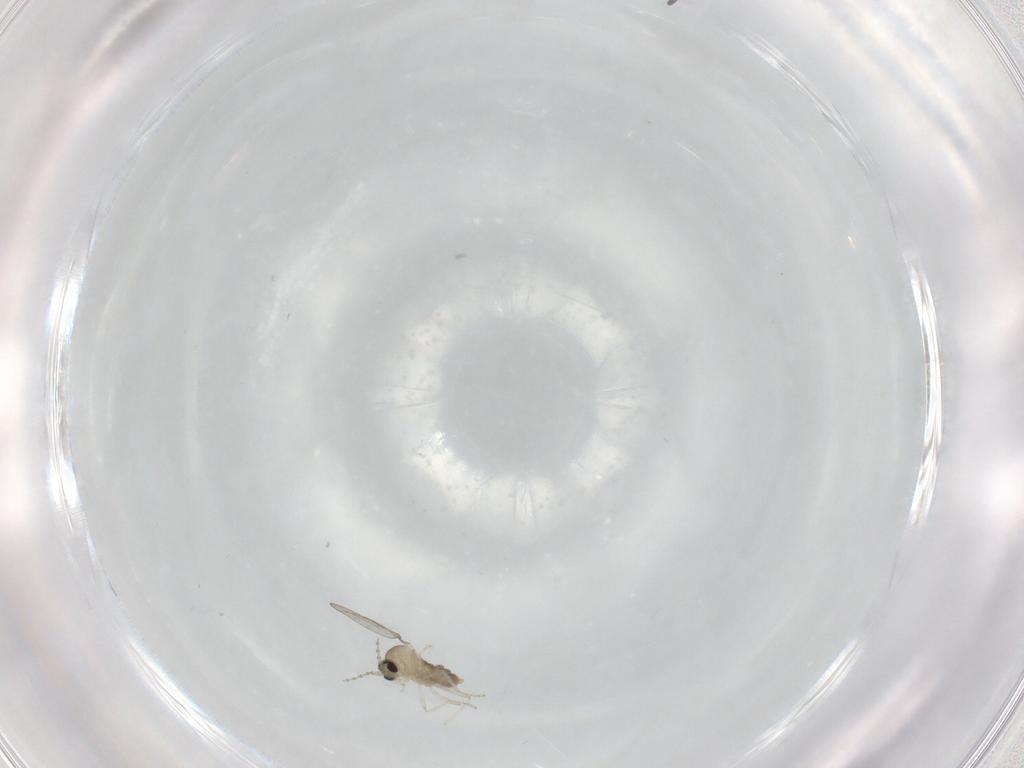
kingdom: Animalia
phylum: Arthropoda
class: Insecta
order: Diptera
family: Cecidomyiidae
